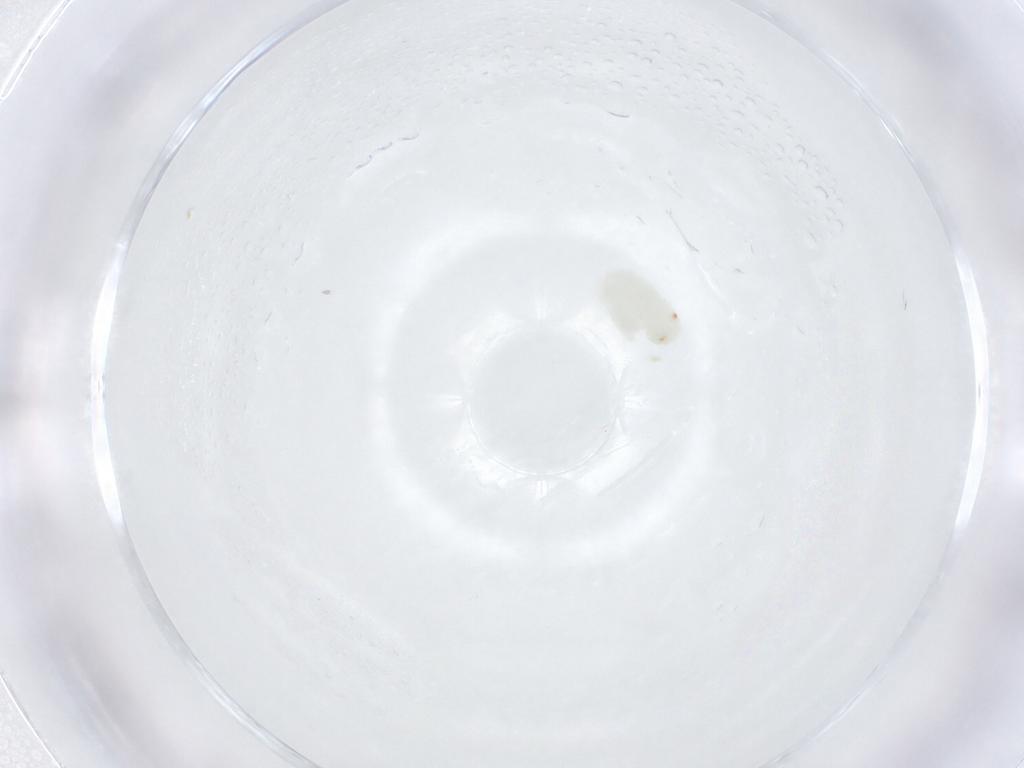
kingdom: Animalia
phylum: Arthropoda
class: Insecta
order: Hymenoptera
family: Braconidae
